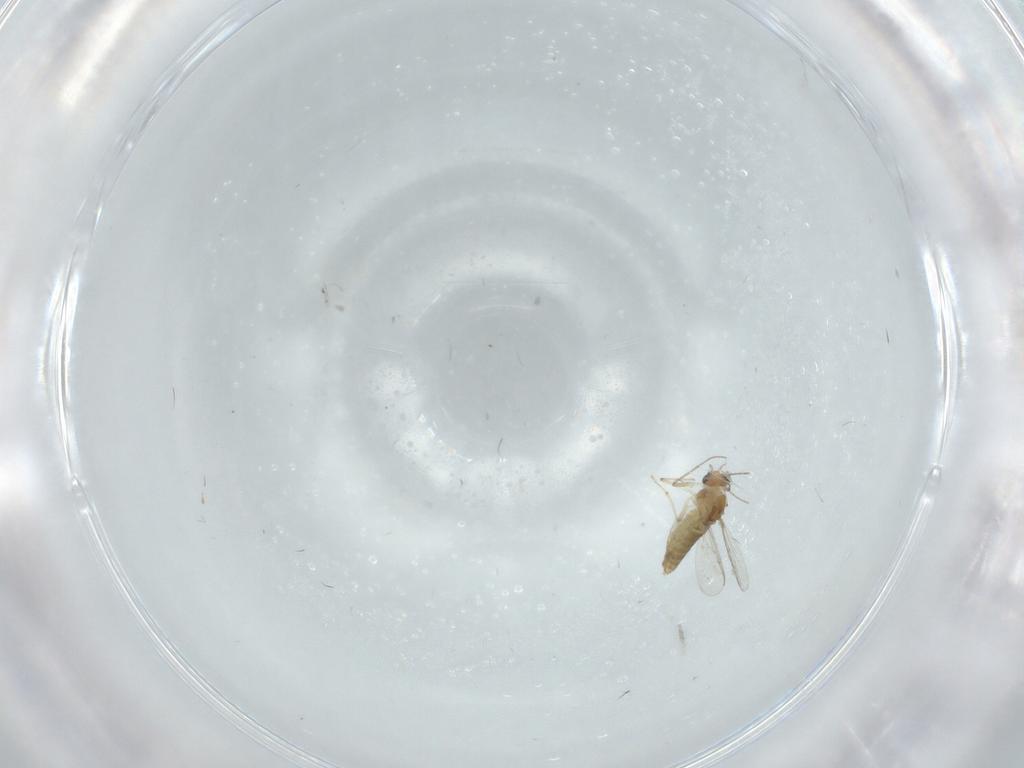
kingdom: Animalia
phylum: Arthropoda
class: Insecta
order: Diptera
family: Chironomidae
